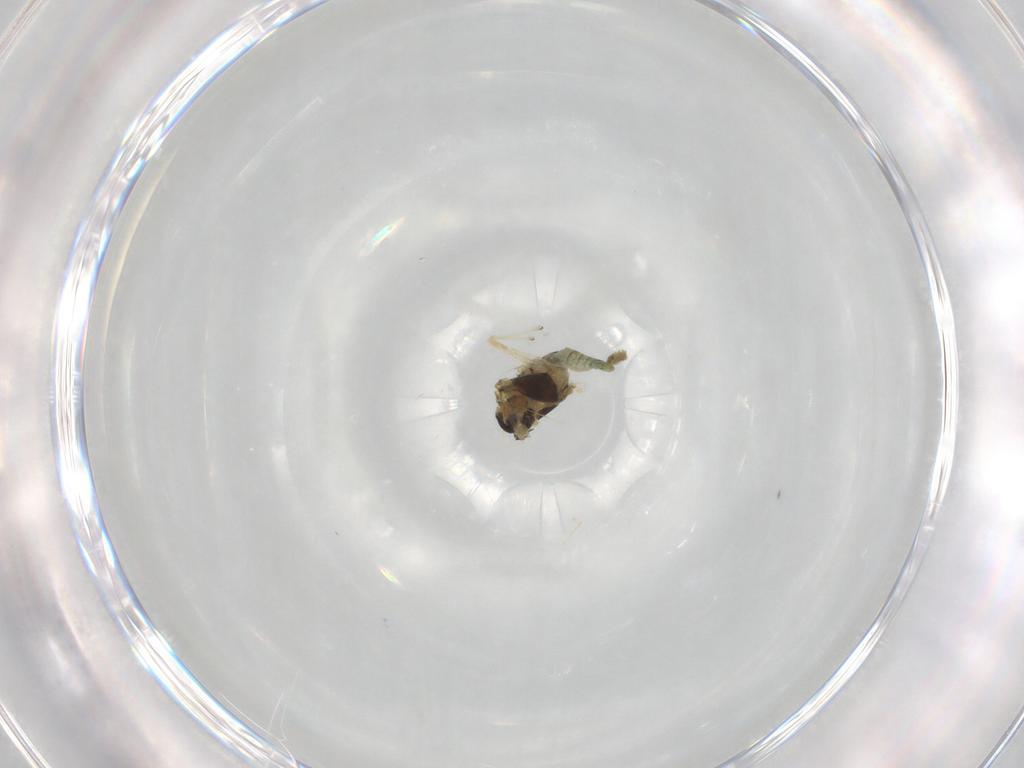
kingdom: Animalia
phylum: Arthropoda
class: Insecta
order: Diptera
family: Chironomidae
